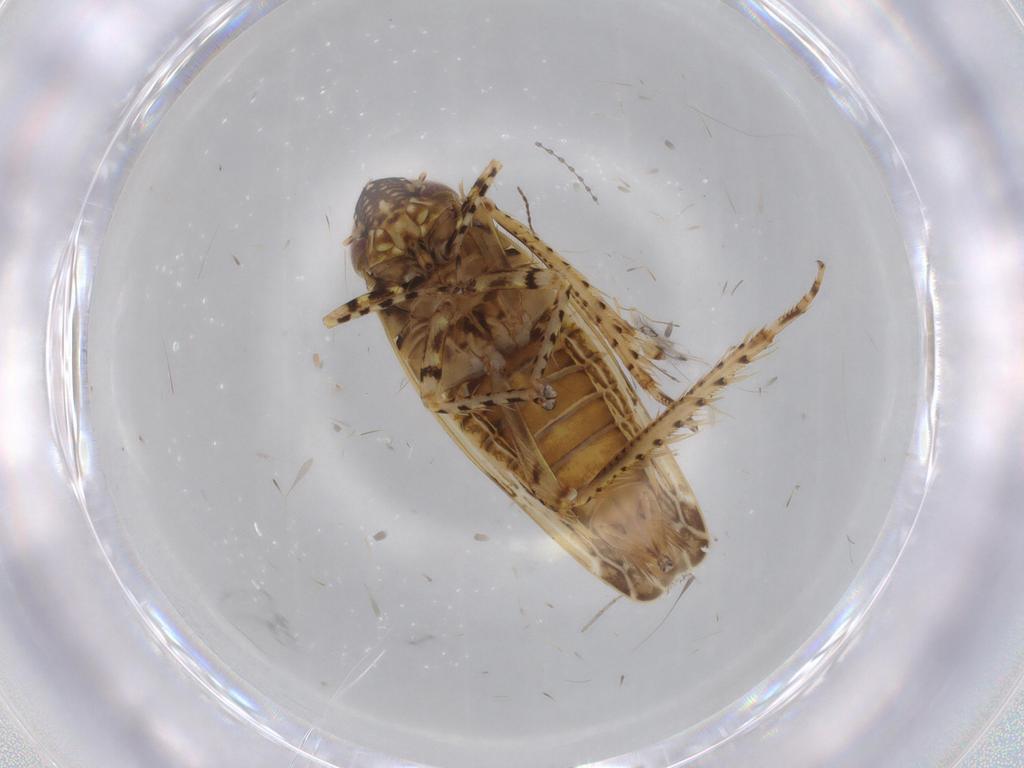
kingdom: Animalia
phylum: Arthropoda
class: Insecta
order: Hemiptera
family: Cicadellidae
